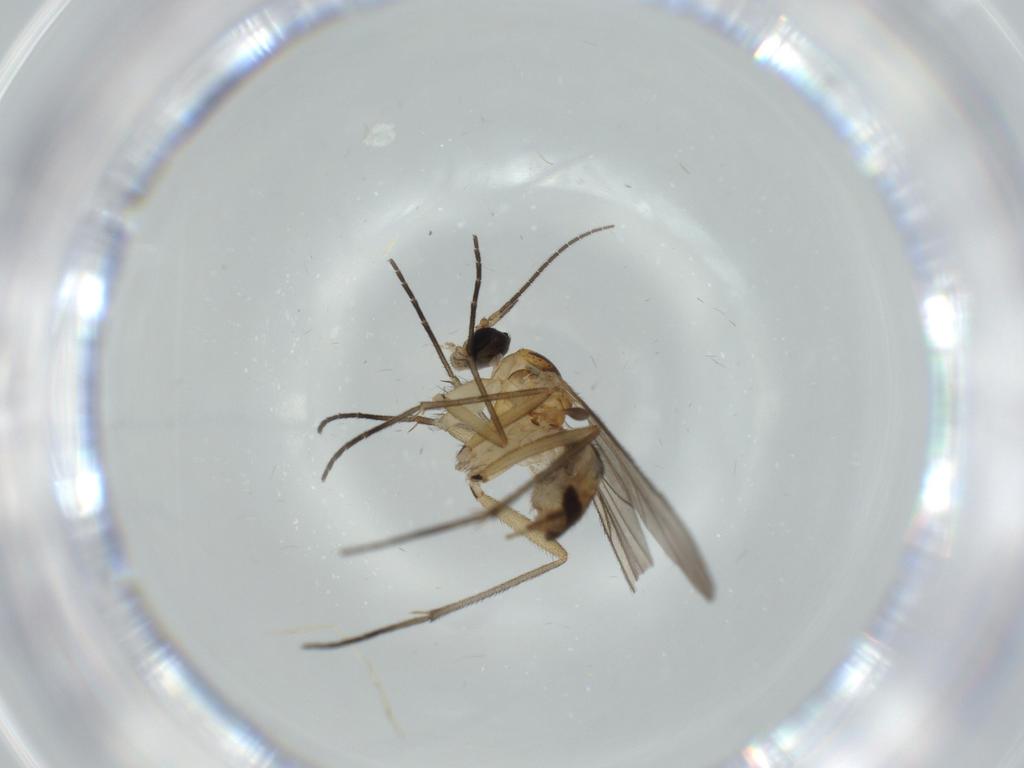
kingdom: Animalia
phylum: Arthropoda
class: Insecta
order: Diptera
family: Sciaridae
